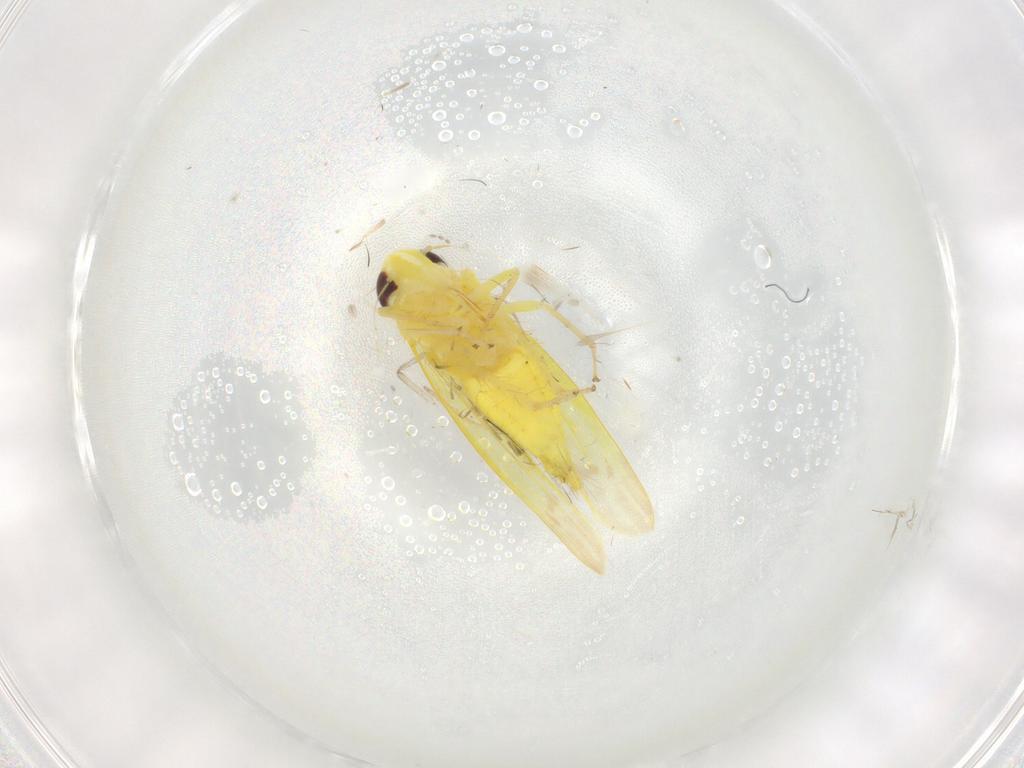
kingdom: Animalia
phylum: Arthropoda
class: Insecta
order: Hemiptera
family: Cicadellidae
